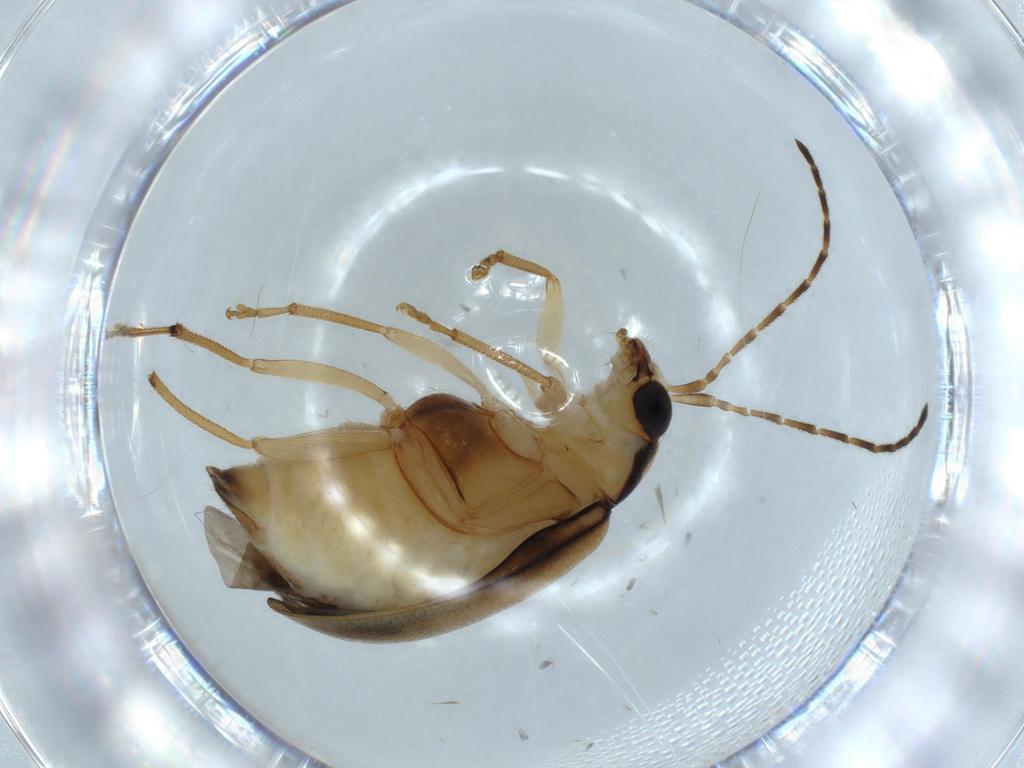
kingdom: Animalia
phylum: Arthropoda
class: Insecta
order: Coleoptera
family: Chrysomelidae
